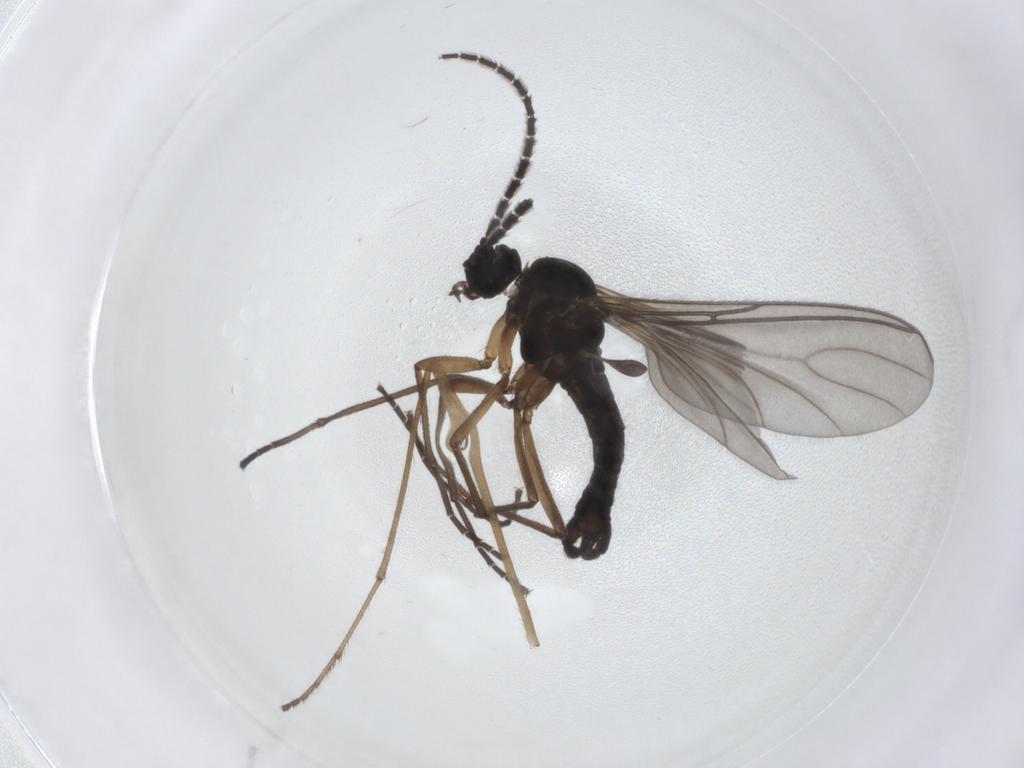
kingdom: Animalia
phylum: Arthropoda
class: Insecta
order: Diptera
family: Sciaridae
